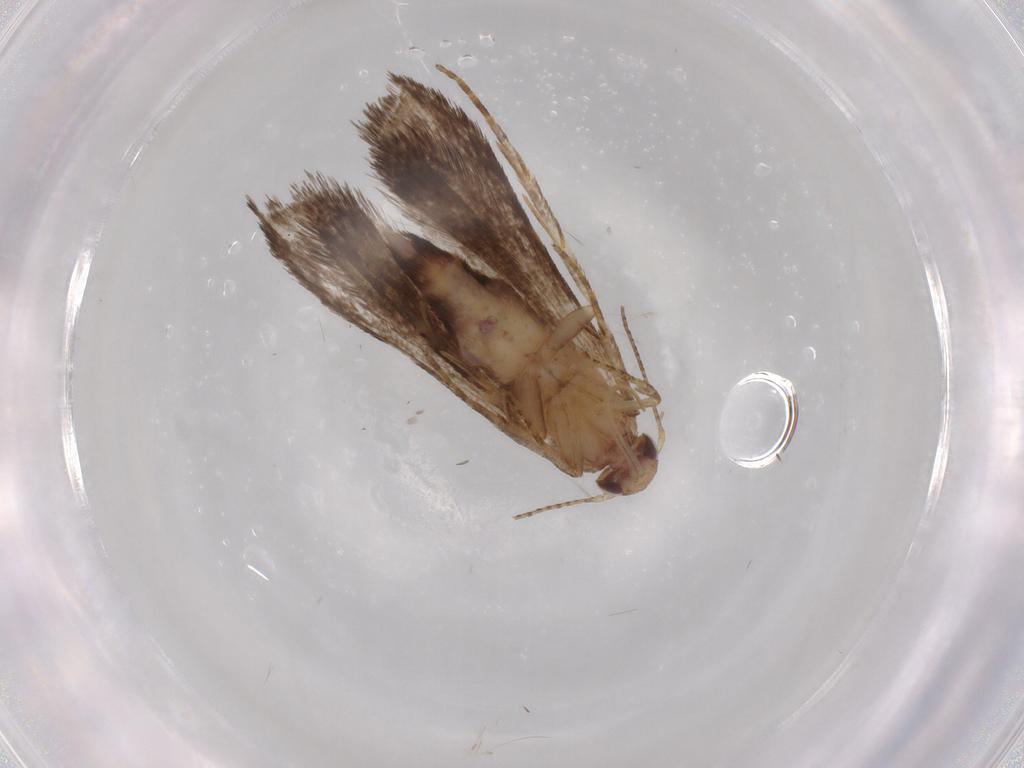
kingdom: Animalia
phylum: Arthropoda
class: Insecta
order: Lepidoptera
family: Crambidae
